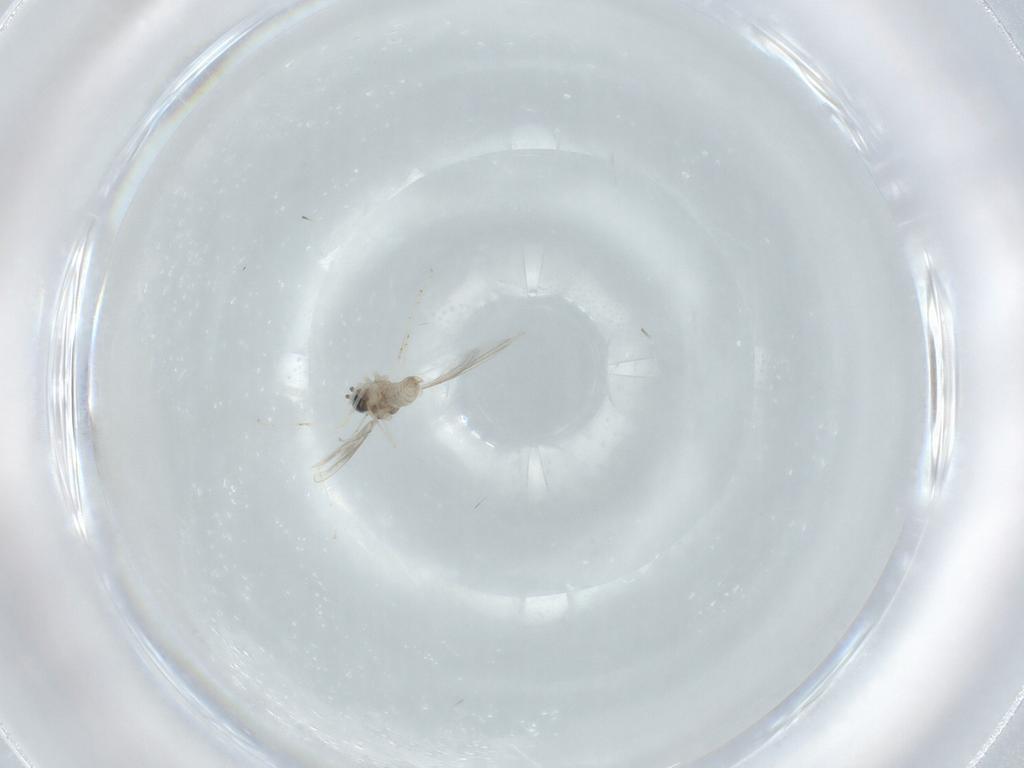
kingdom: Animalia
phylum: Arthropoda
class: Insecta
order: Diptera
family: Cecidomyiidae
